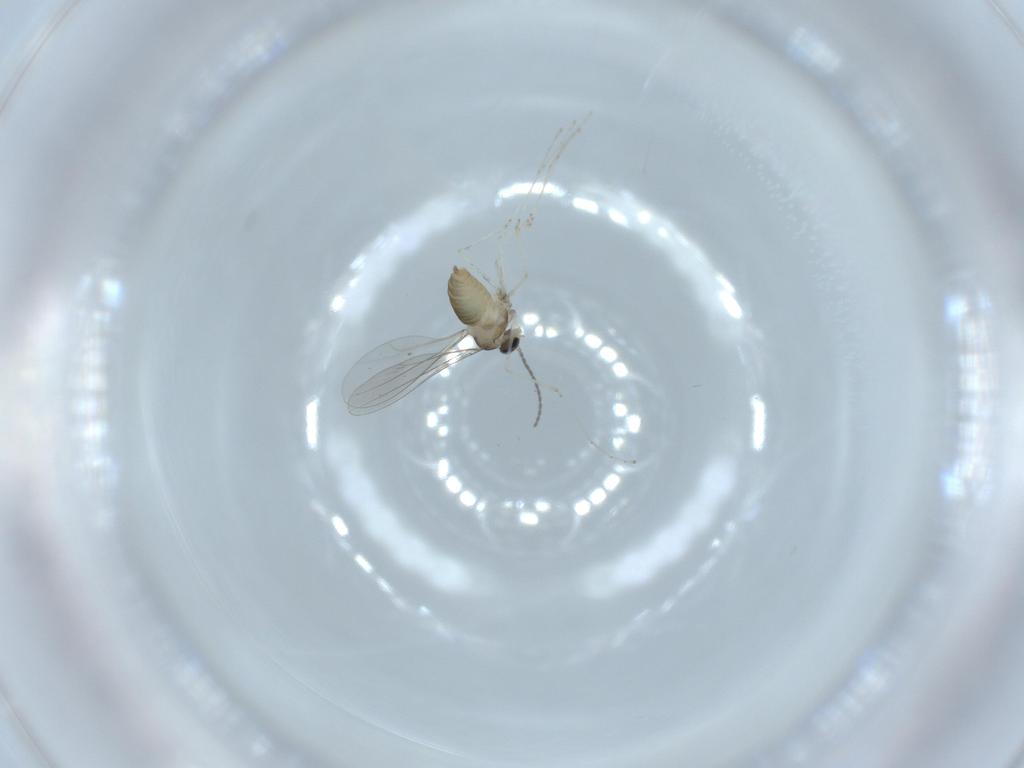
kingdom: Animalia
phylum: Arthropoda
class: Insecta
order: Diptera
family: Cecidomyiidae
